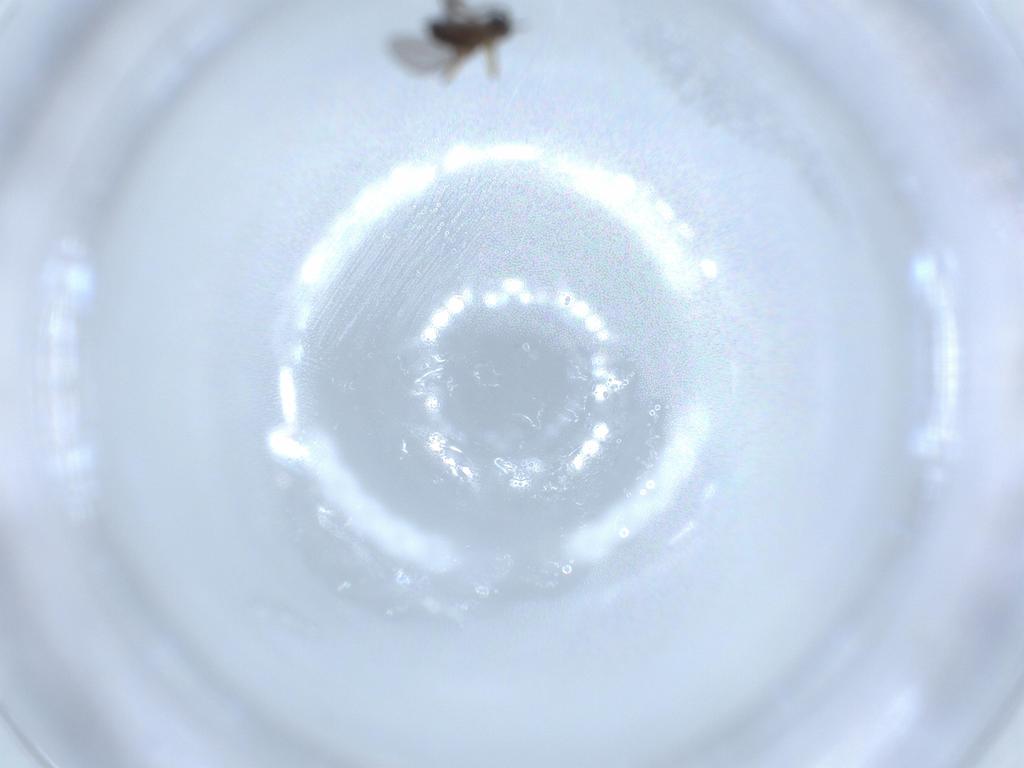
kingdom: Animalia
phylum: Arthropoda
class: Insecta
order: Diptera
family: Sciaridae
